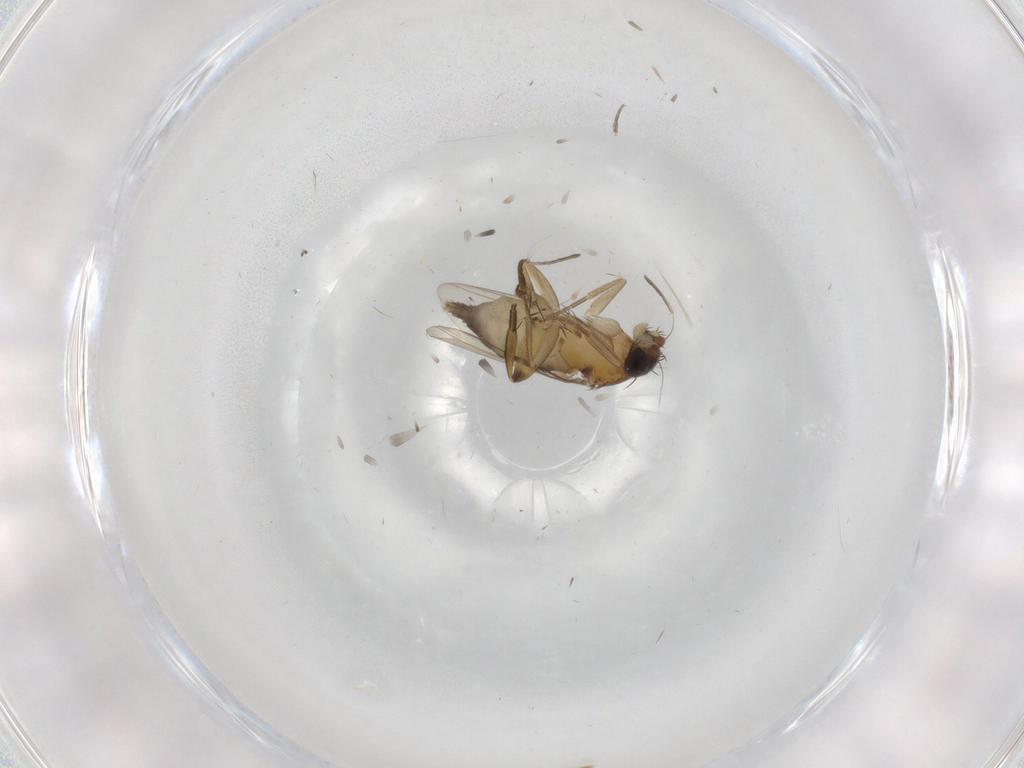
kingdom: Animalia
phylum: Arthropoda
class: Insecta
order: Diptera
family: Phoridae
